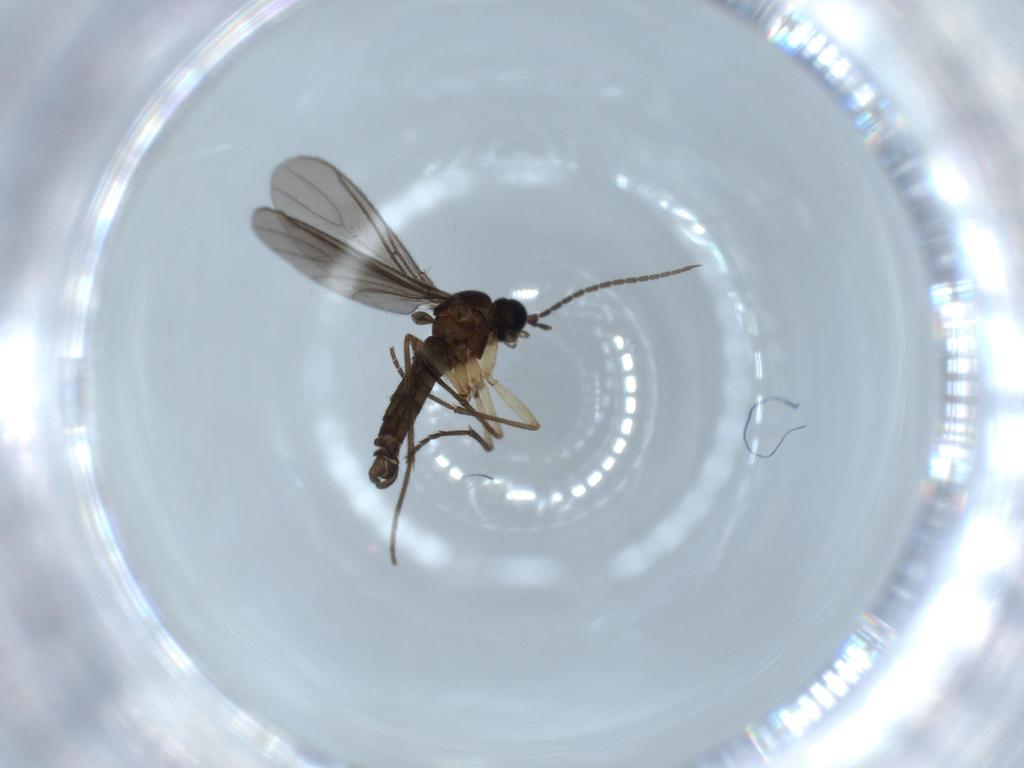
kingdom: Animalia
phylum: Arthropoda
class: Insecta
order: Diptera
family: Sciaridae
